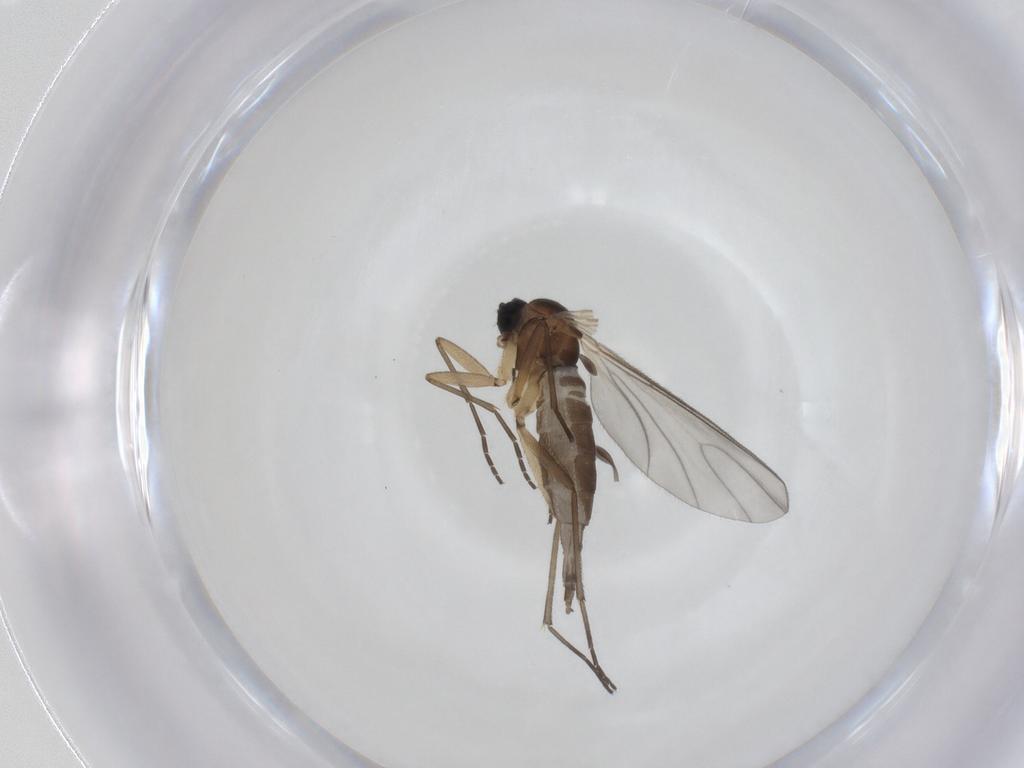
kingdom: Animalia
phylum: Arthropoda
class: Insecta
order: Diptera
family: Sciaridae
